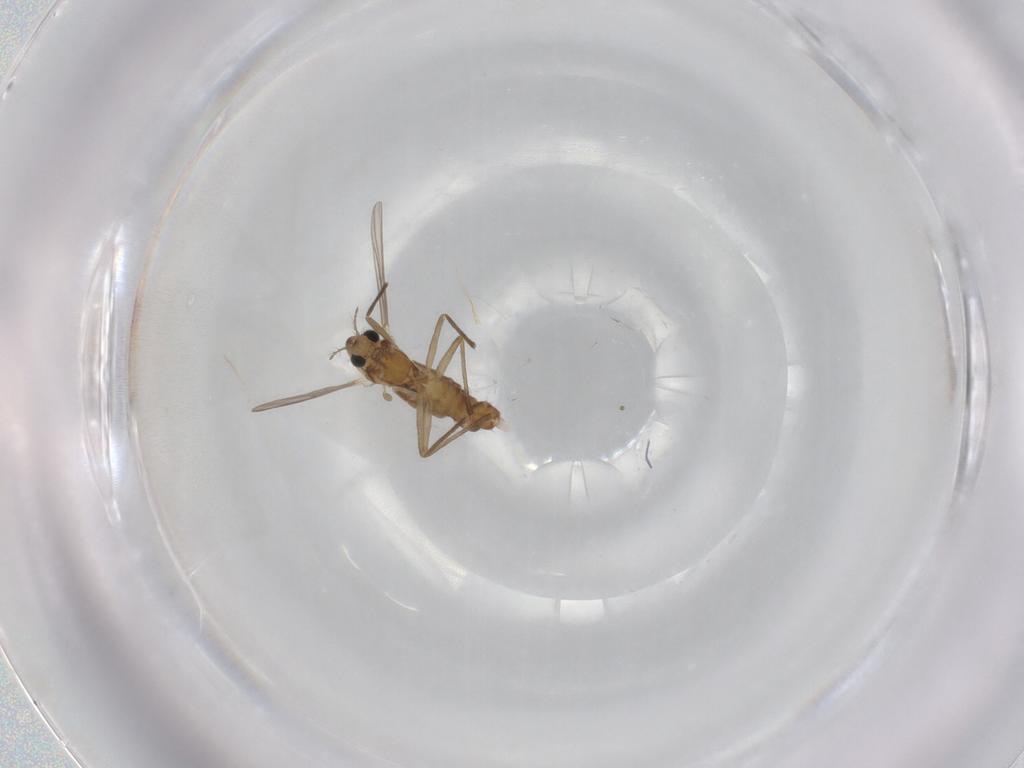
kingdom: Animalia
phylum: Arthropoda
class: Insecta
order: Diptera
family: Chironomidae
